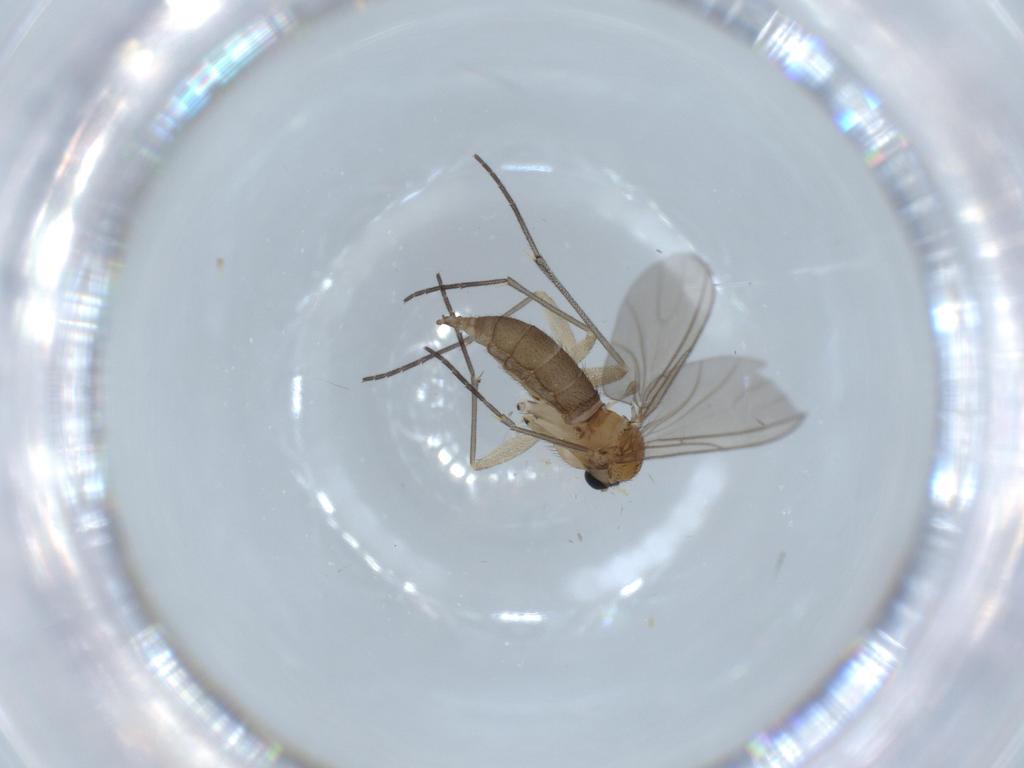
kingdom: Animalia
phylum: Arthropoda
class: Insecta
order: Diptera
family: Sciaridae
